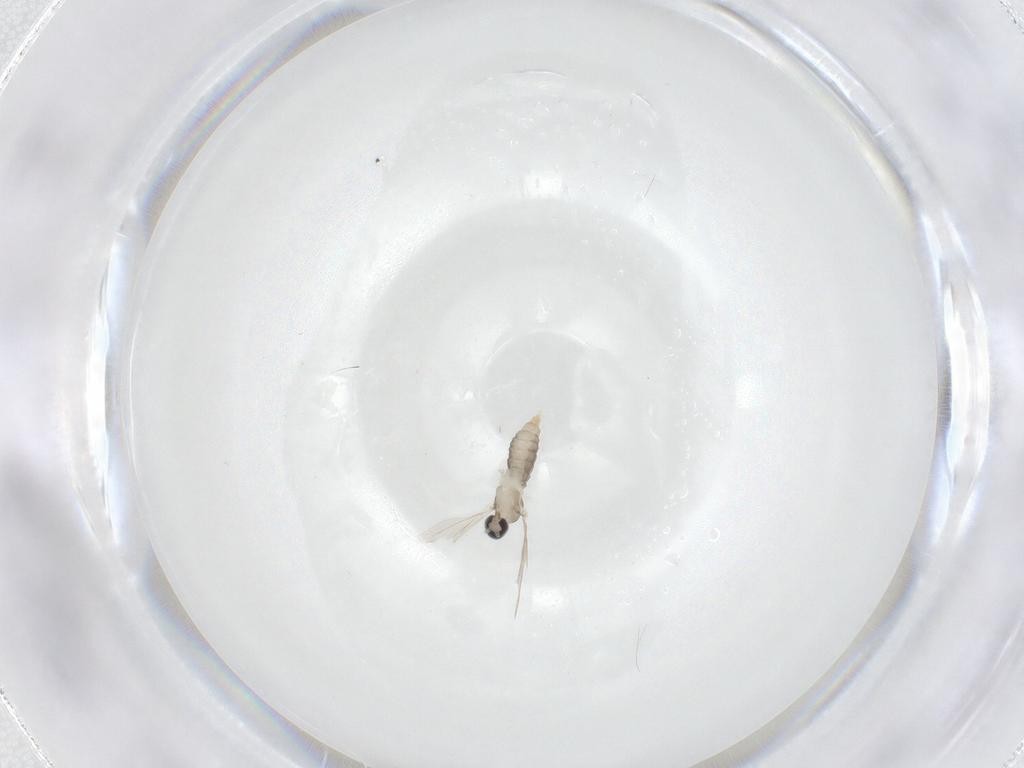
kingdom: Animalia
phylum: Arthropoda
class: Insecta
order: Diptera
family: Cecidomyiidae
